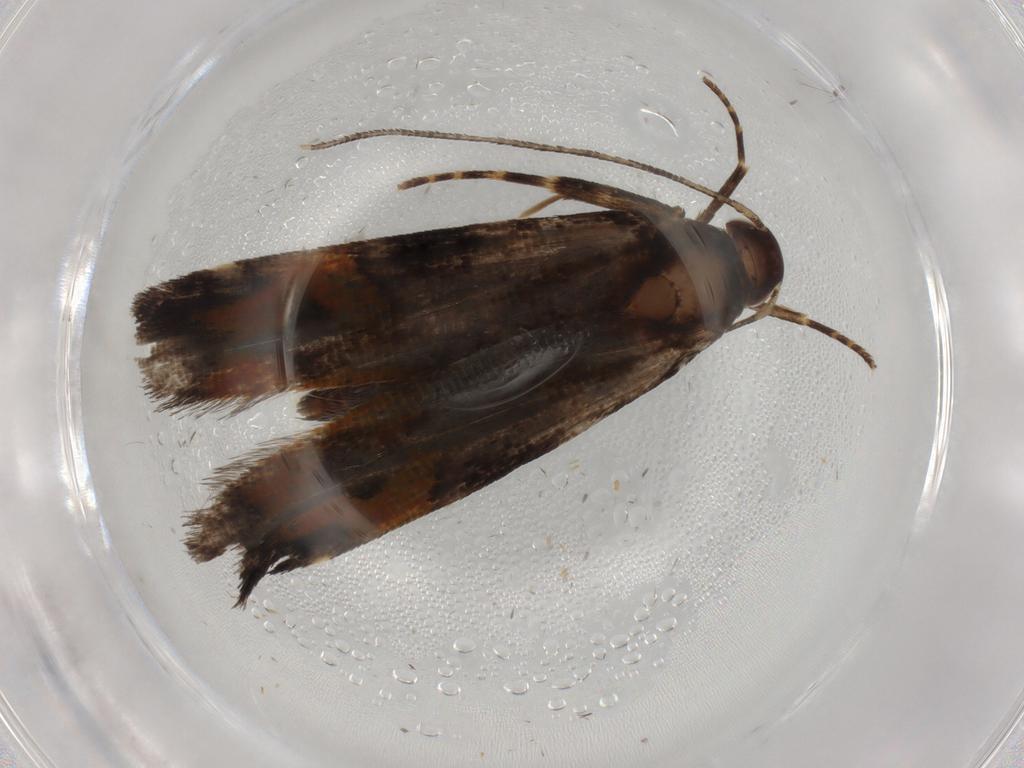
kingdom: Animalia
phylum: Arthropoda
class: Insecta
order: Lepidoptera
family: Gelechiidae
